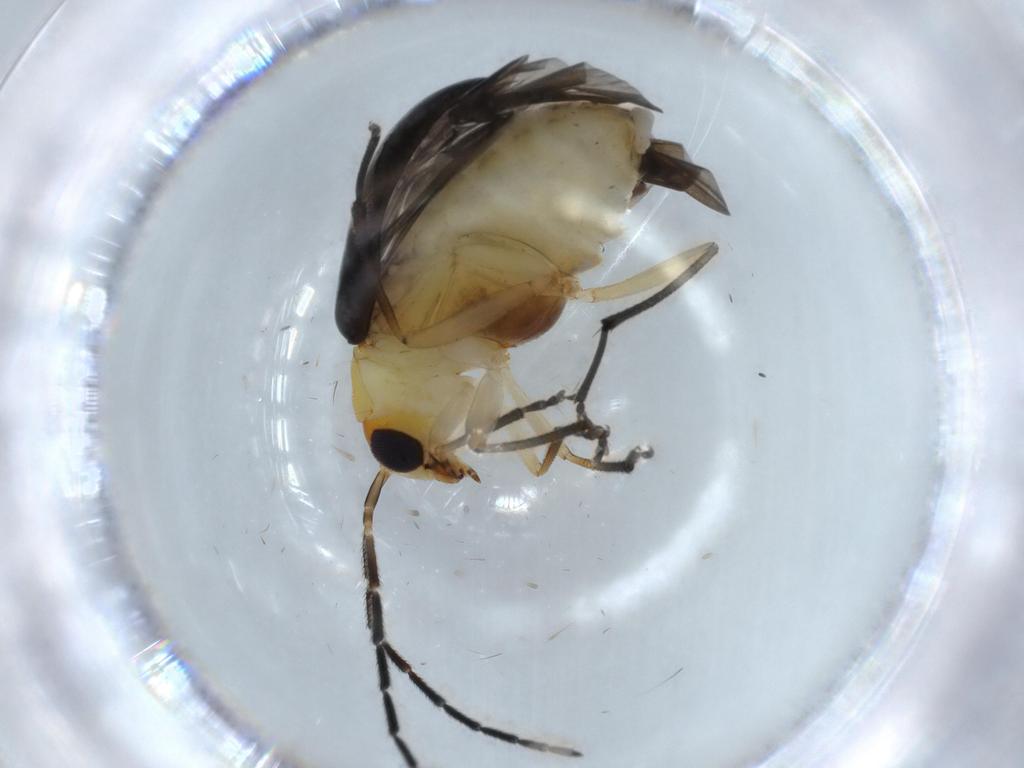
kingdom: Animalia
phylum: Arthropoda
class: Insecta
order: Coleoptera
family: Chrysomelidae
